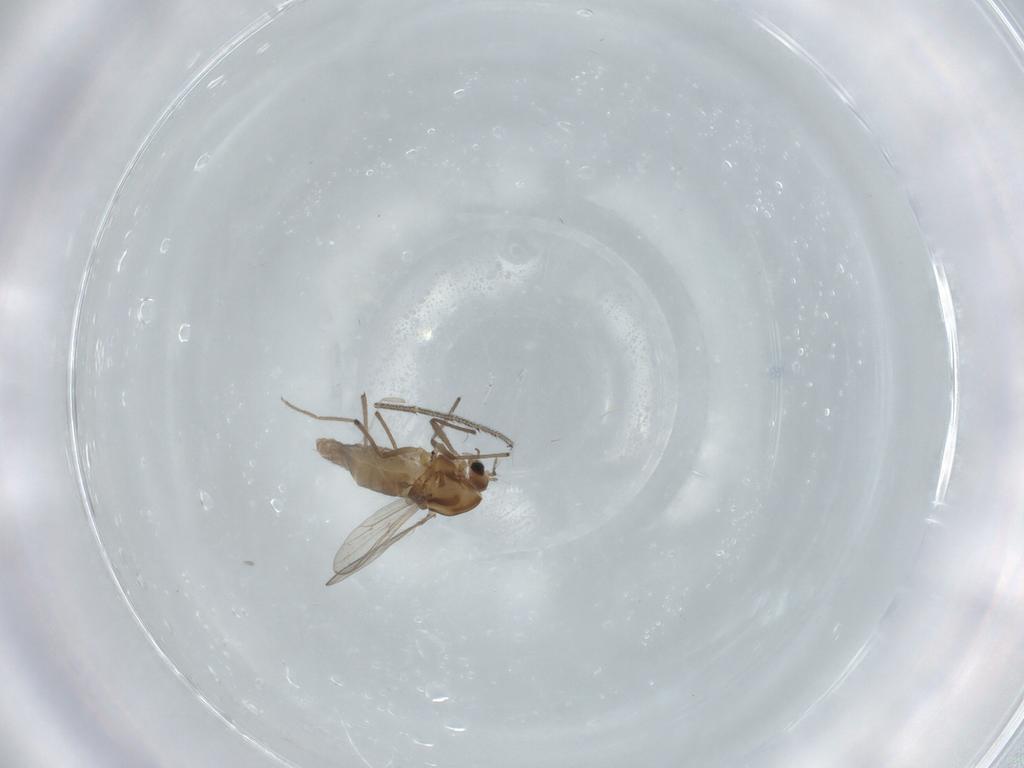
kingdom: Animalia
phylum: Arthropoda
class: Insecta
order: Diptera
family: Chironomidae
